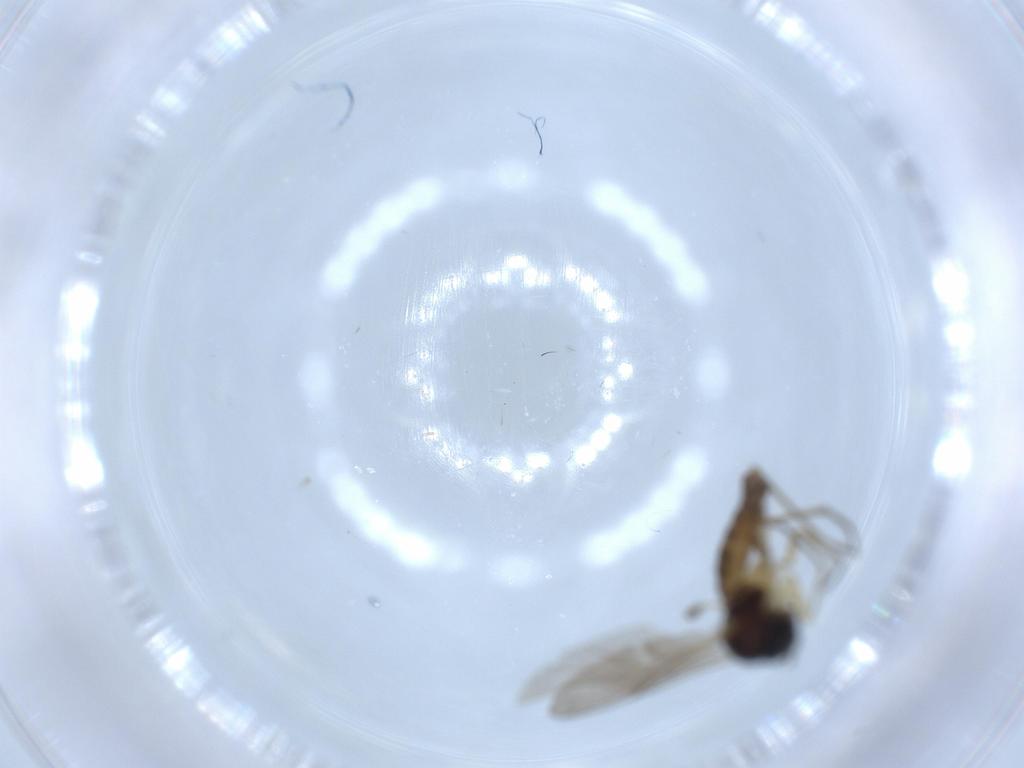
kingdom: Animalia
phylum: Arthropoda
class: Insecta
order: Diptera
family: Sciaridae
